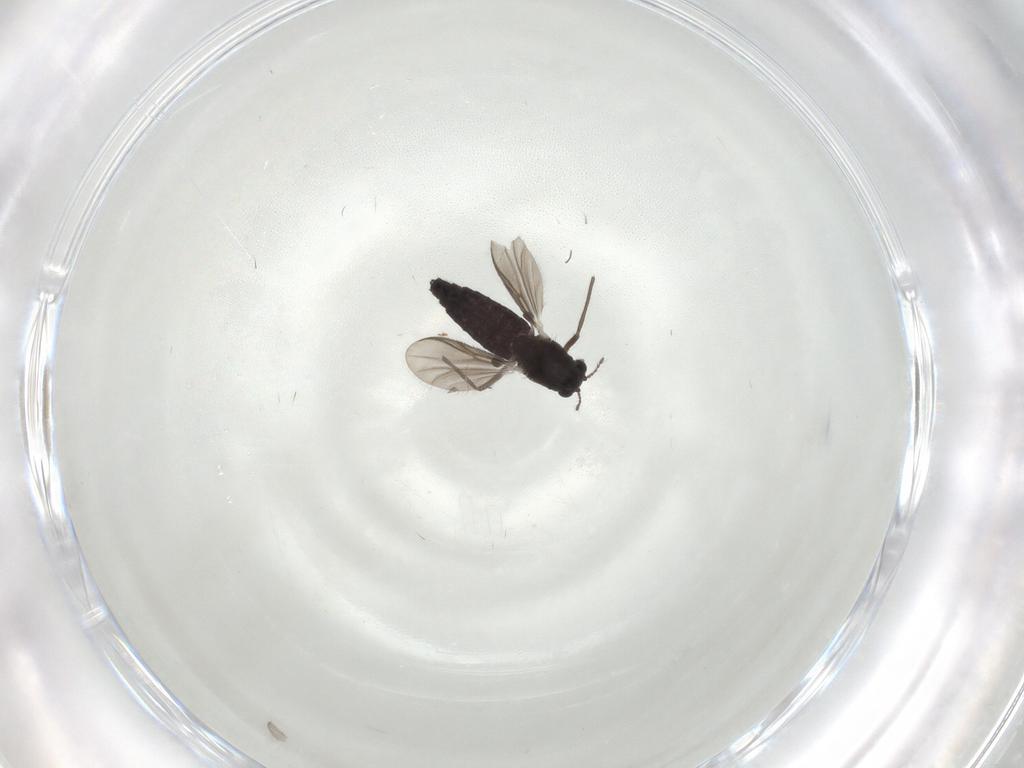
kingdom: Animalia
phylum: Arthropoda
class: Insecta
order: Diptera
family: Chironomidae
